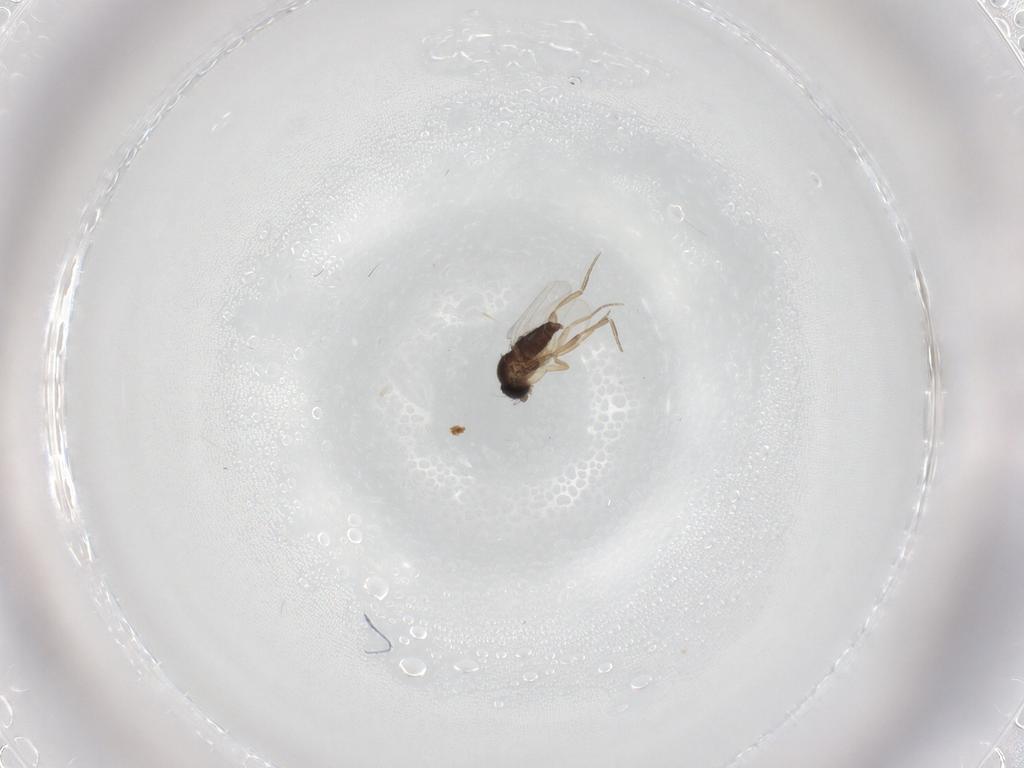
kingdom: Animalia
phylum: Arthropoda
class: Insecta
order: Diptera
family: Phoridae
